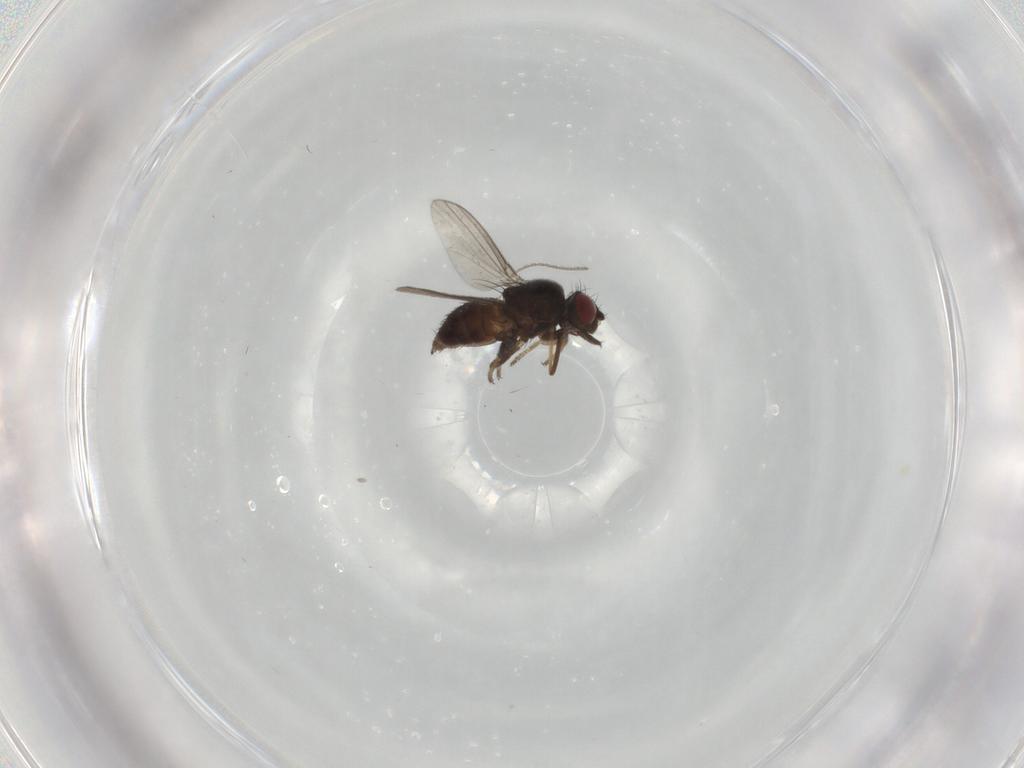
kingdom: Animalia
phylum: Arthropoda
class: Insecta
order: Diptera
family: Milichiidae
